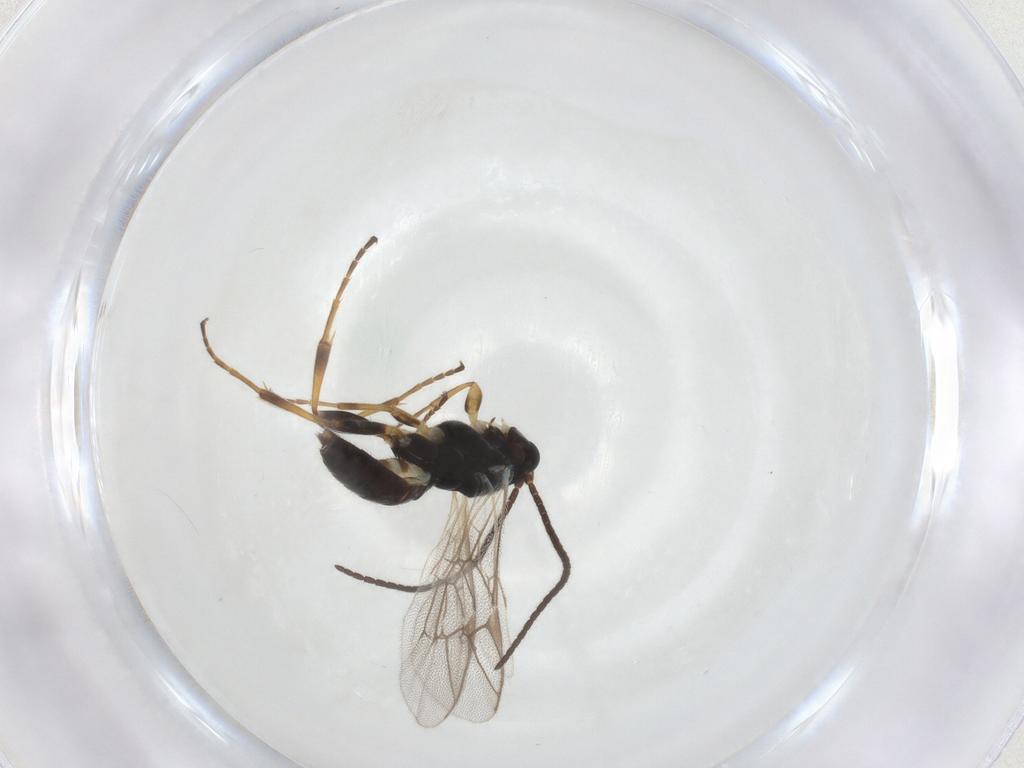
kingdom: Animalia
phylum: Arthropoda
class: Insecta
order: Hymenoptera
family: Ichneumonidae
